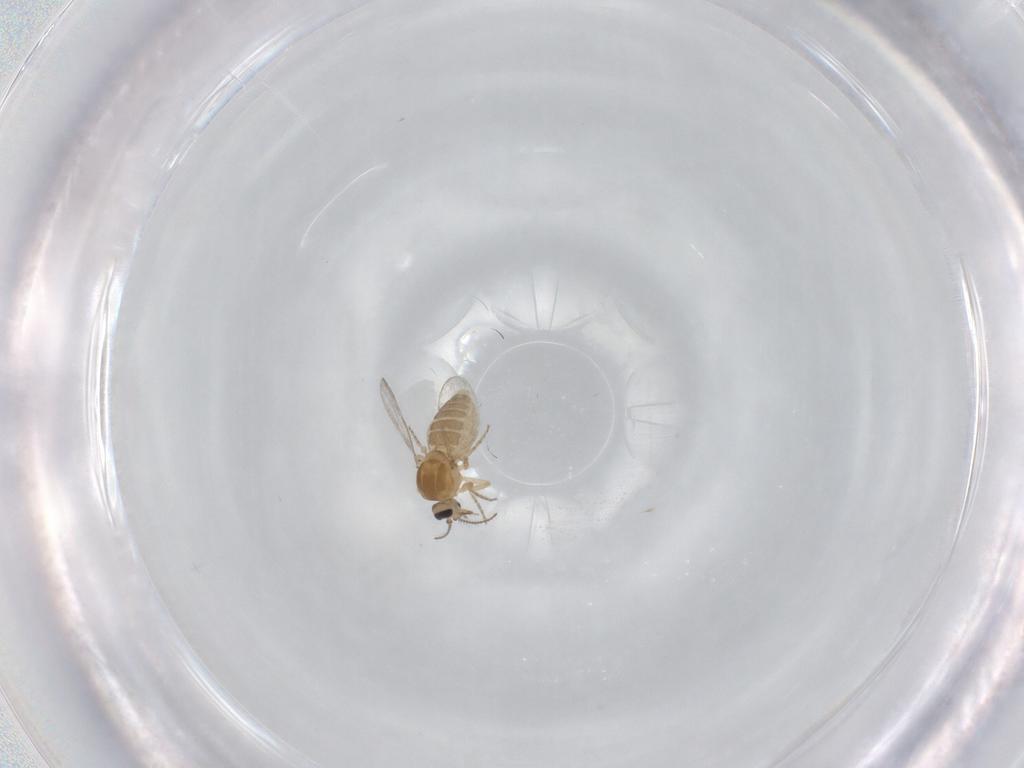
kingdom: Animalia
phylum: Arthropoda
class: Insecta
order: Diptera
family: Ceratopogonidae
